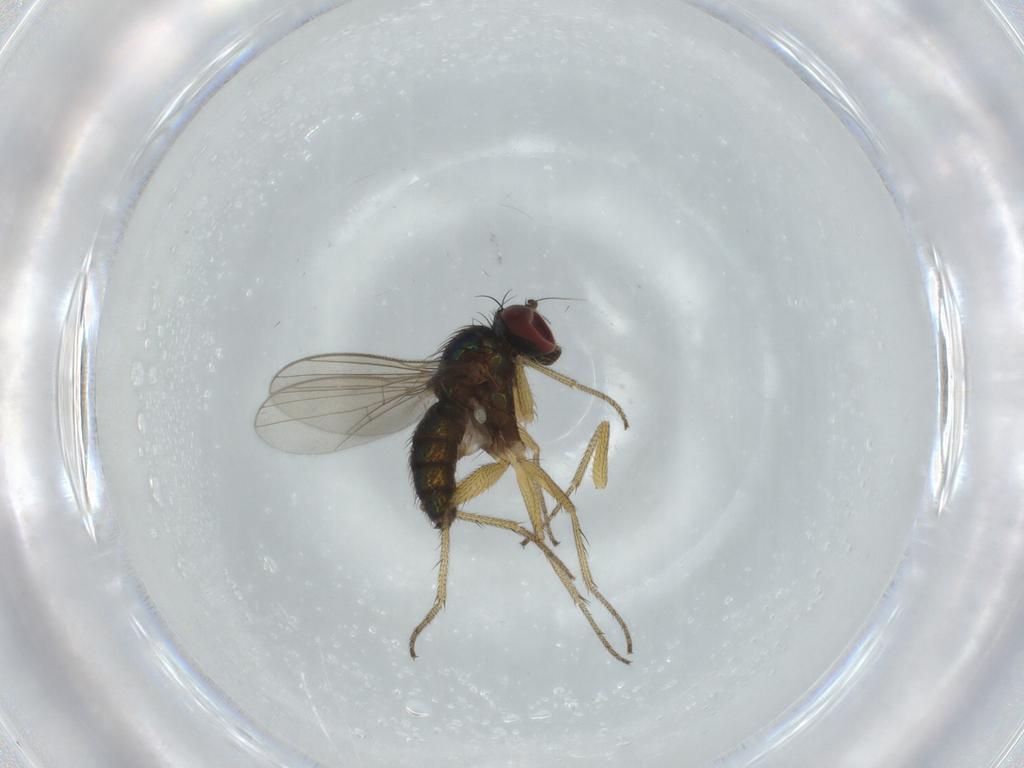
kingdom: Animalia
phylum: Arthropoda
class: Insecta
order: Diptera
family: Dolichopodidae
